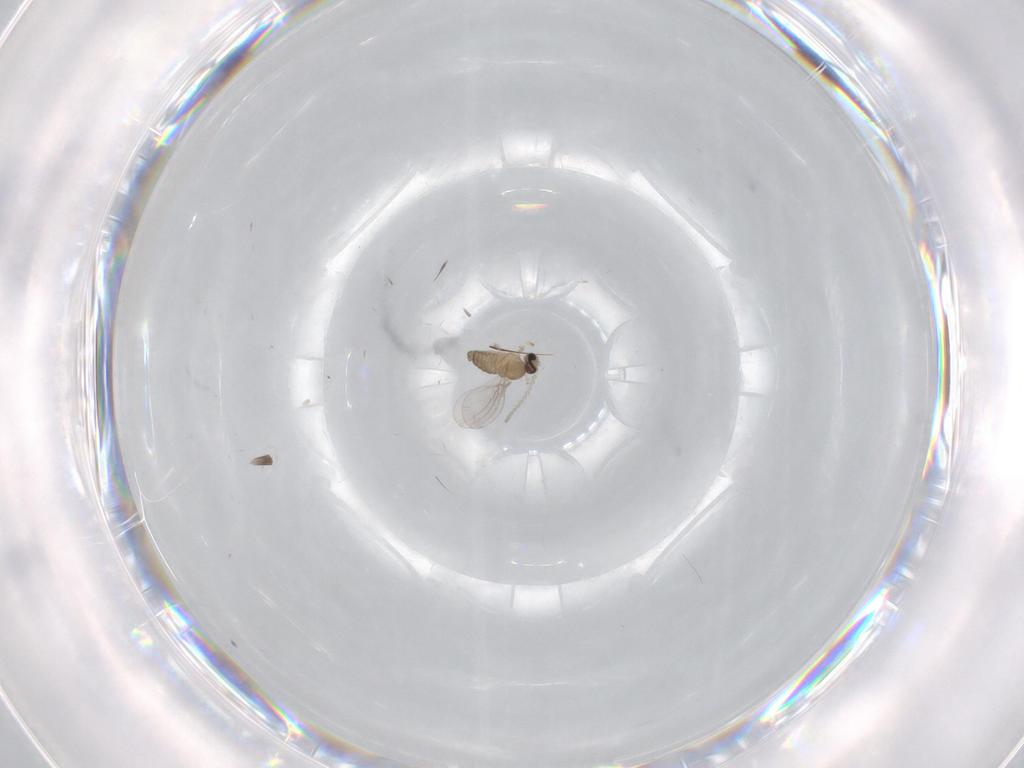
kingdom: Animalia
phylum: Arthropoda
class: Insecta
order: Diptera
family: Cecidomyiidae
